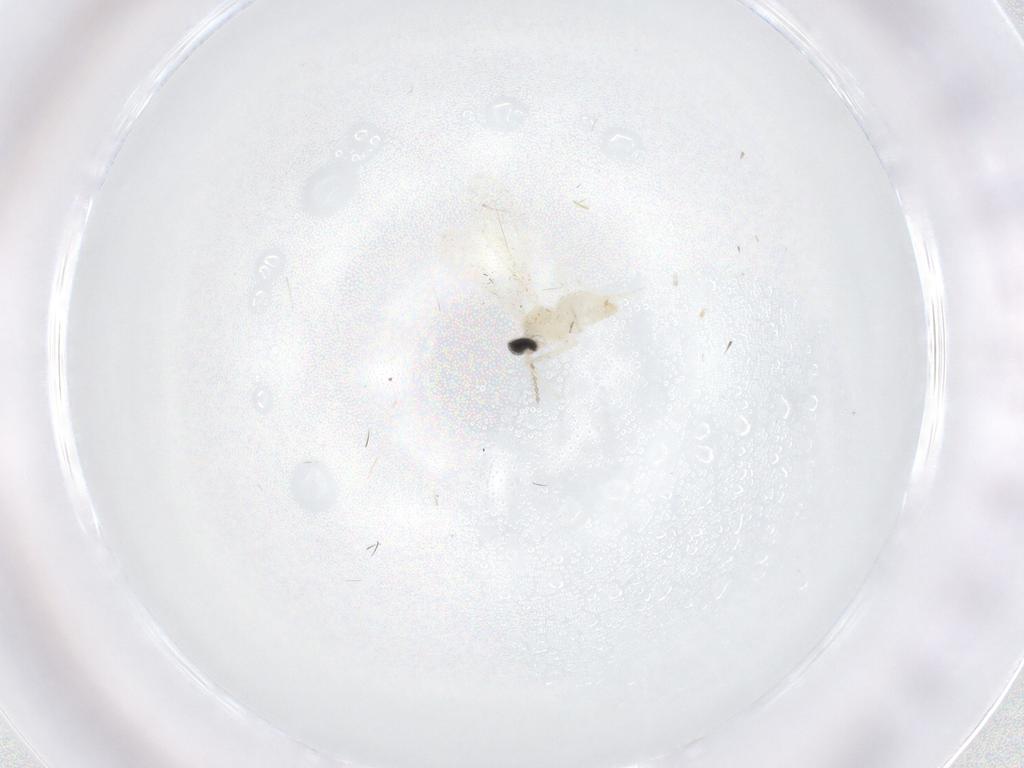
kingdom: Animalia
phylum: Arthropoda
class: Insecta
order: Diptera
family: Cecidomyiidae
